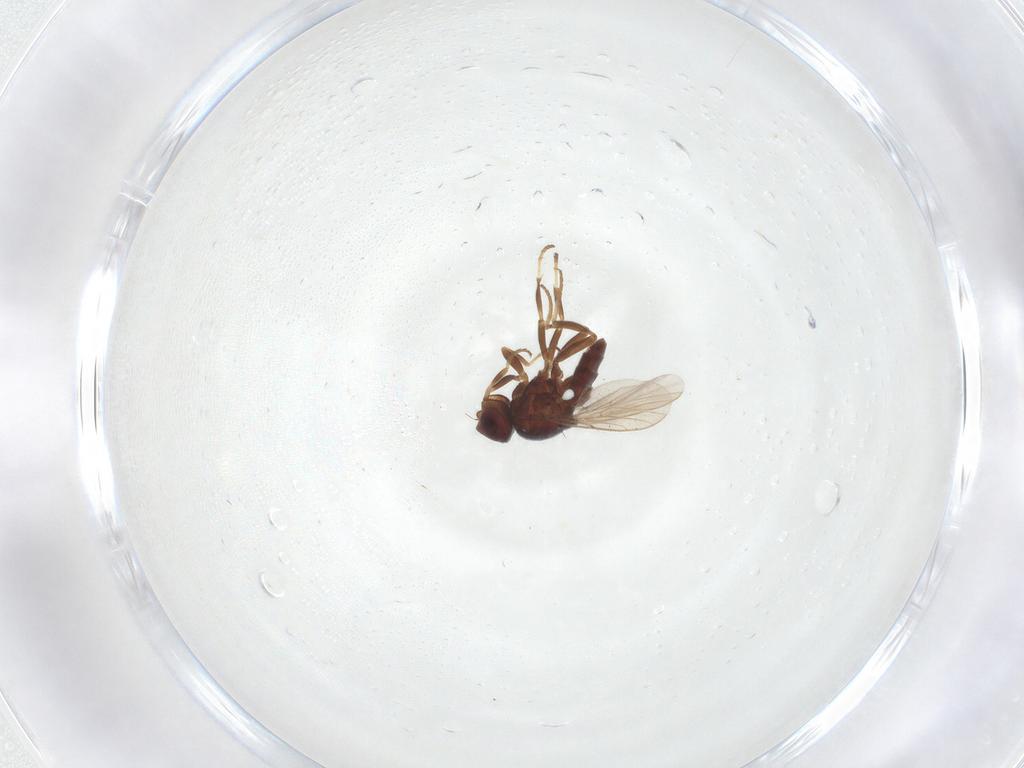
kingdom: Animalia
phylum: Arthropoda
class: Insecta
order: Diptera
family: Chloropidae
